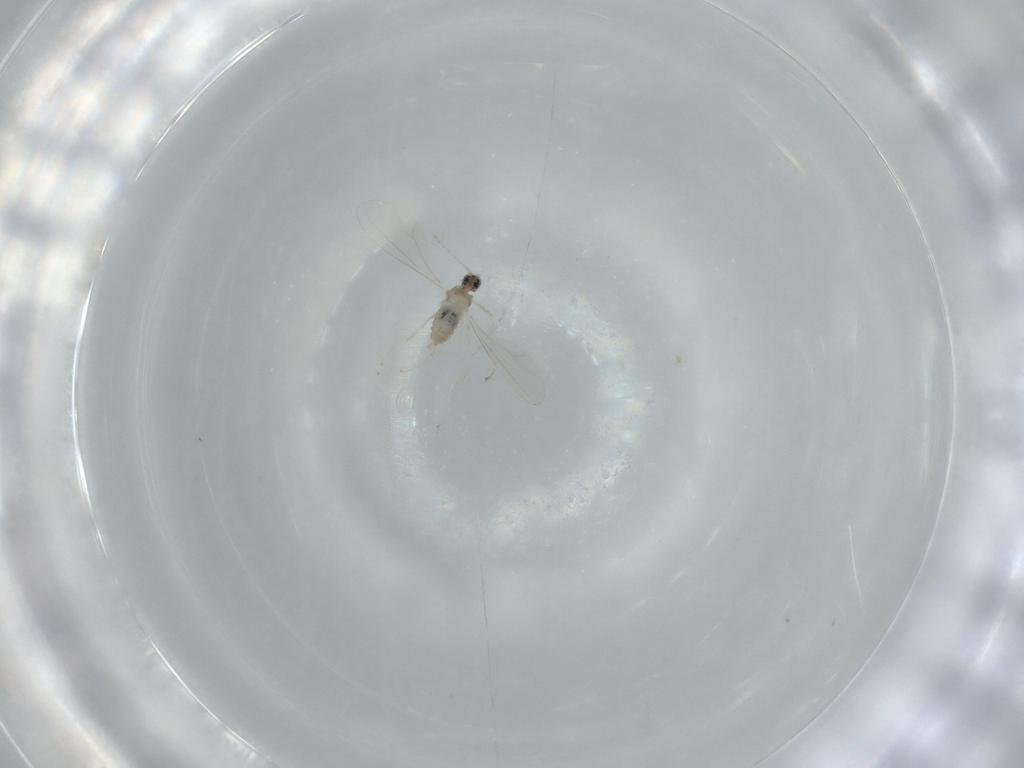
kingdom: Animalia
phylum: Arthropoda
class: Insecta
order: Diptera
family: Cecidomyiidae
